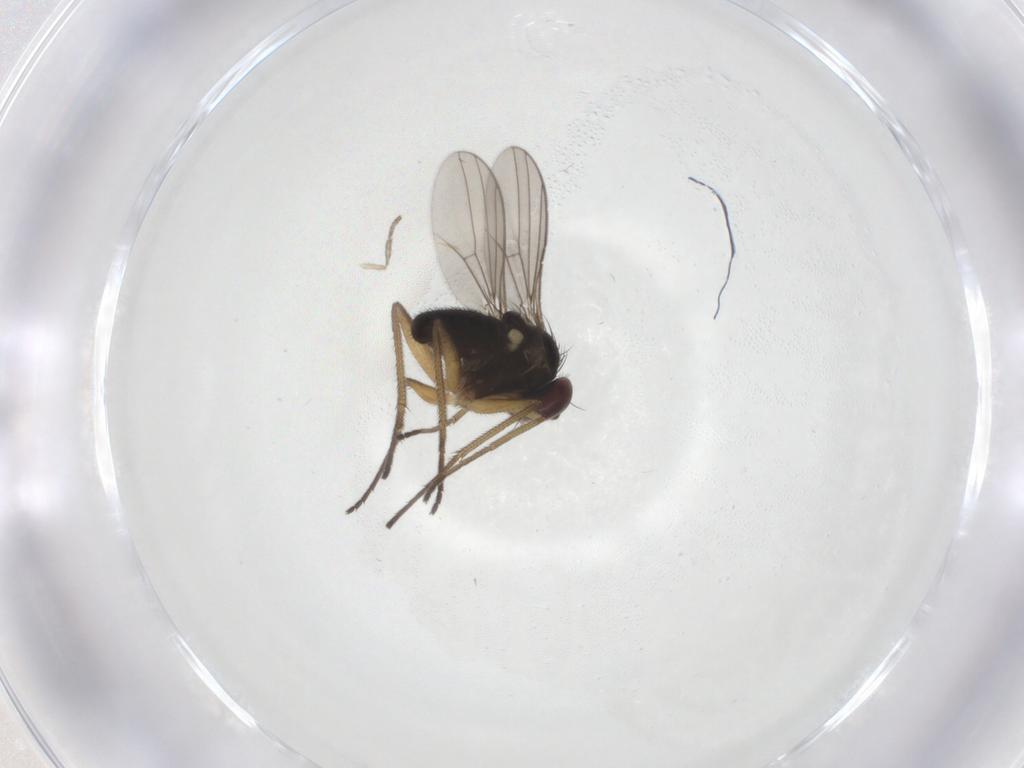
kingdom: Animalia
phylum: Arthropoda
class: Insecta
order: Diptera
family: Dolichopodidae
